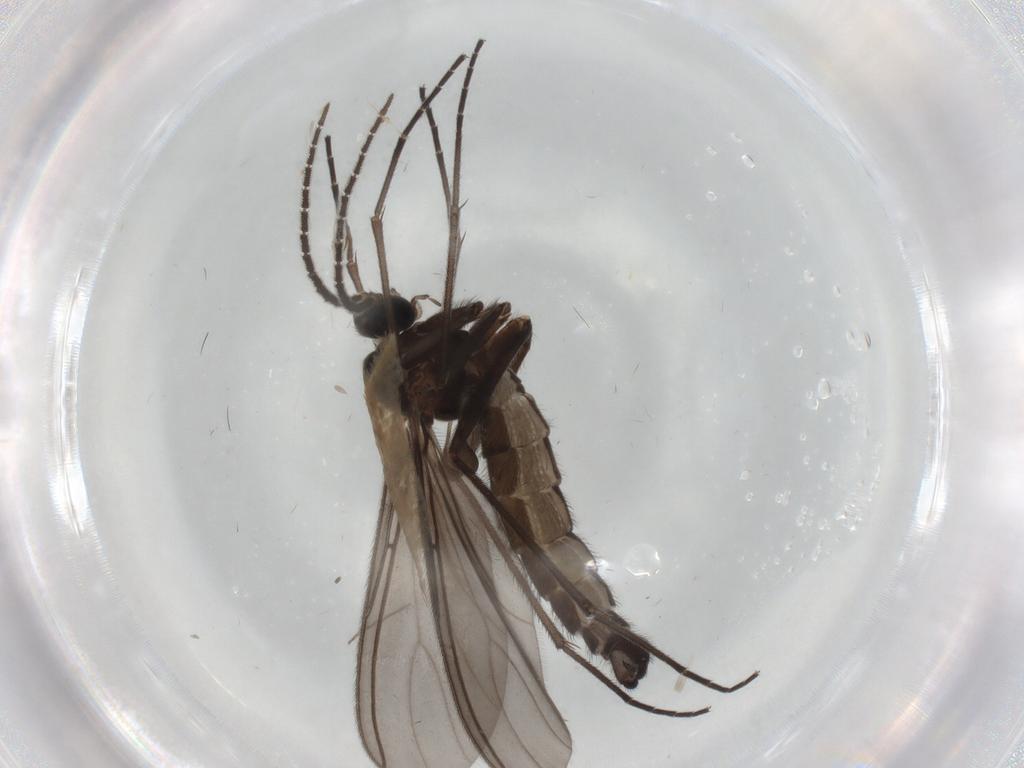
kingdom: Animalia
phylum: Arthropoda
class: Insecta
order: Diptera
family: Sciaridae
